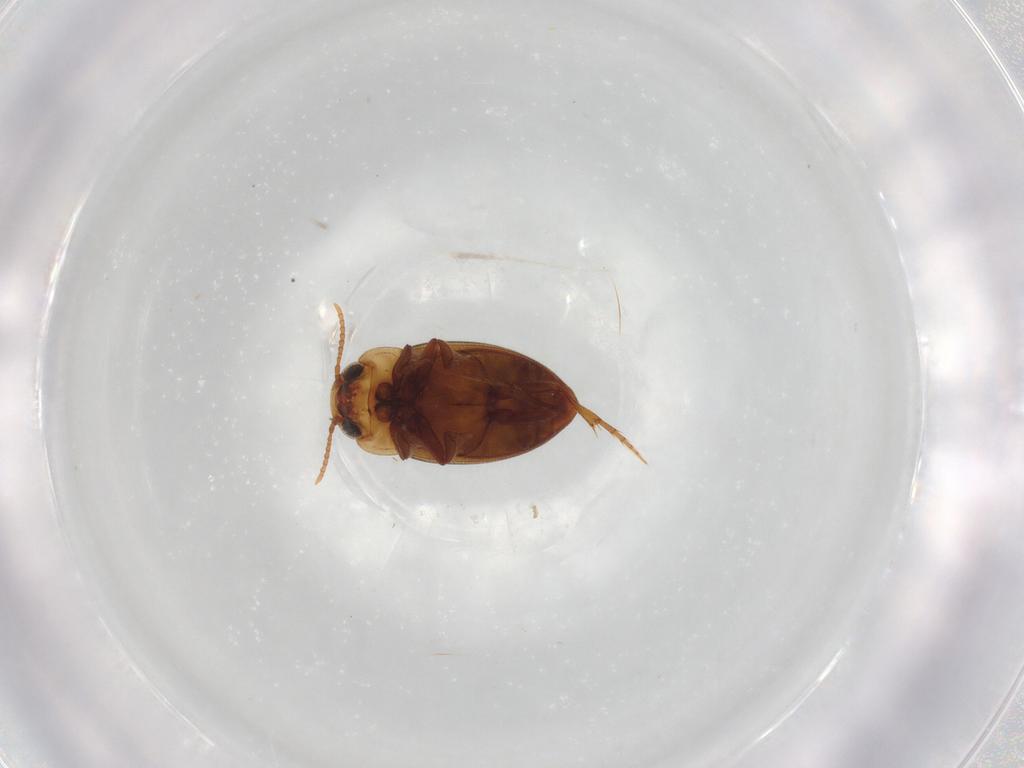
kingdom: Animalia
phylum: Arthropoda
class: Insecta
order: Coleoptera
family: Dytiscidae
